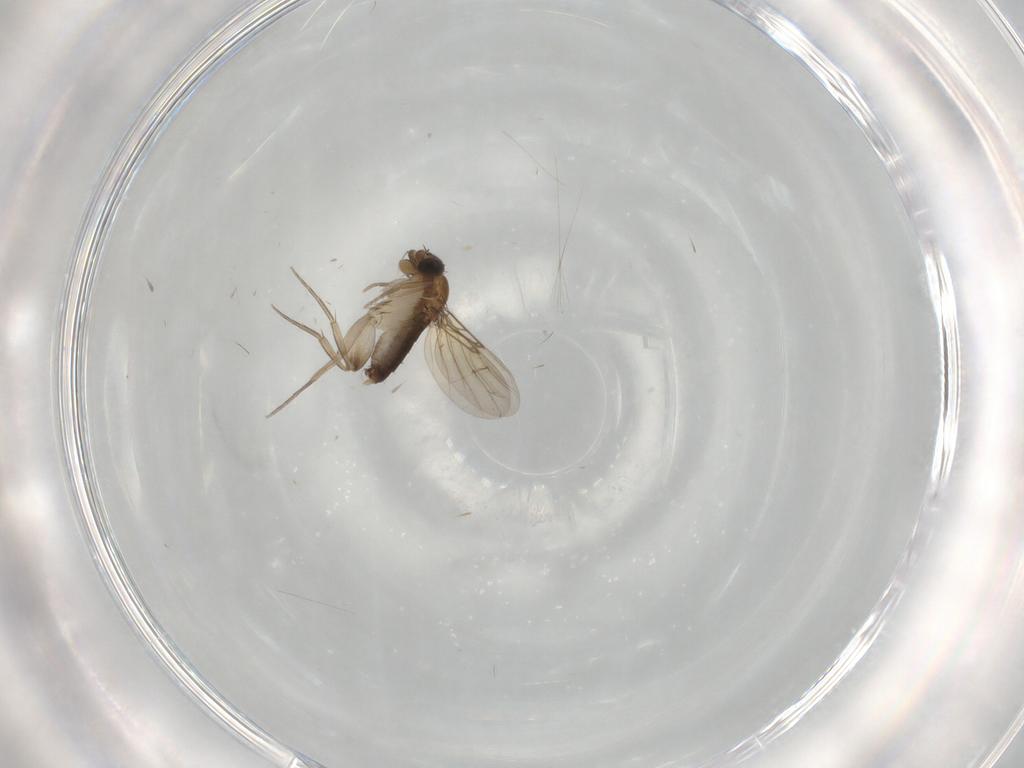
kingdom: Animalia
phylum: Arthropoda
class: Insecta
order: Diptera
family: Phoridae
